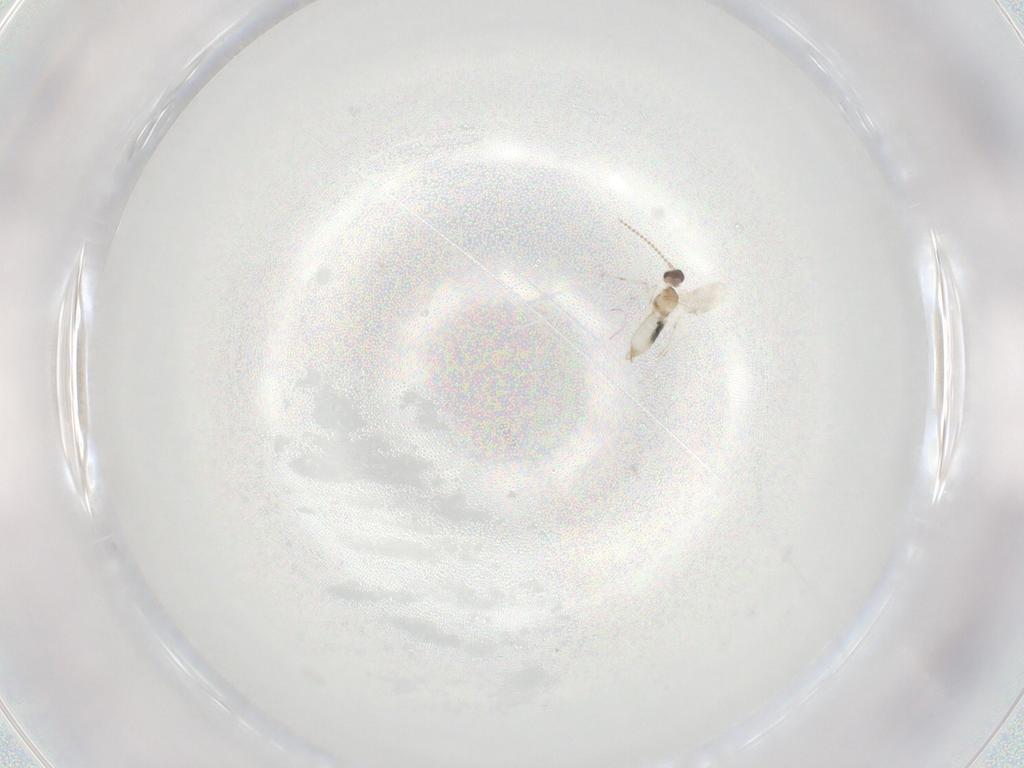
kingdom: Animalia
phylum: Arthropoda
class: Insecta
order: Diptera
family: Cecidomyiidae
